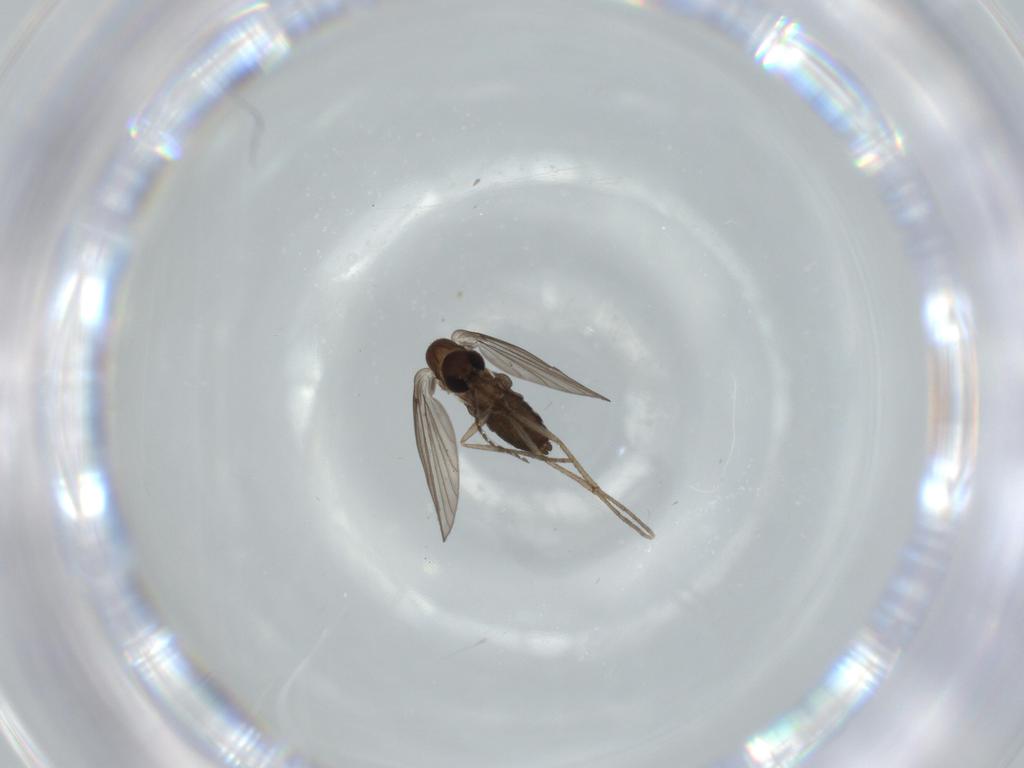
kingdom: Animalia
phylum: Arthropoda
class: Insecta
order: Diptera
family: Psychodidae
